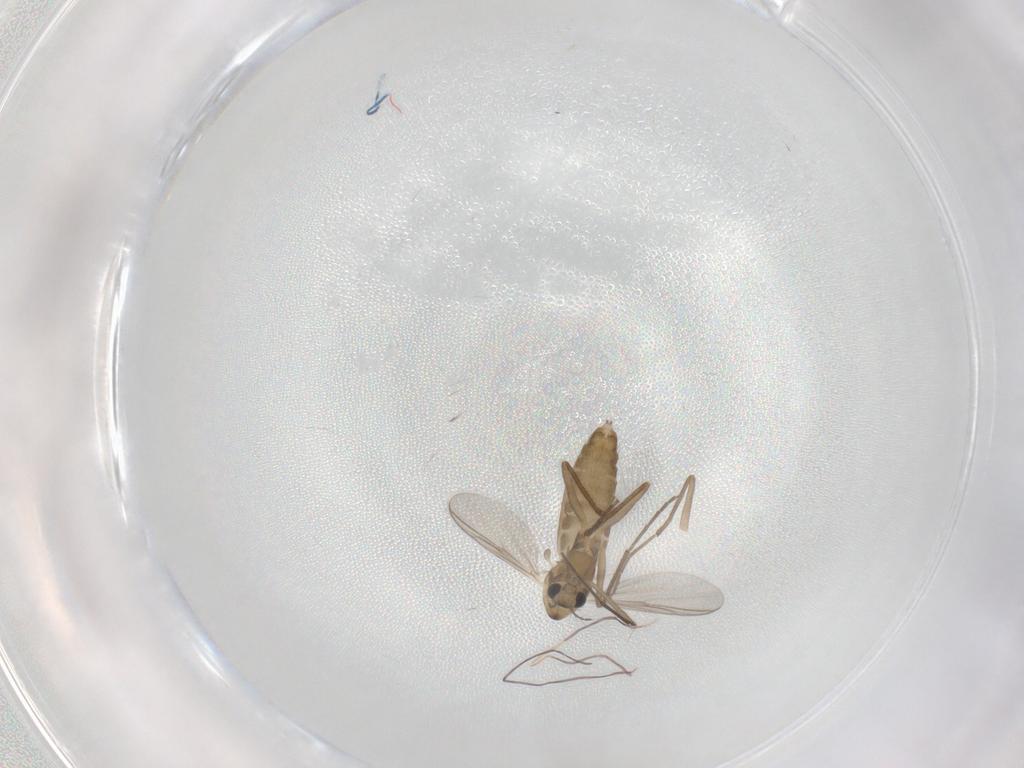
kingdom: Animalia
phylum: Arthropoda
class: Insecta
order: Diptera
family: Chironomidae
